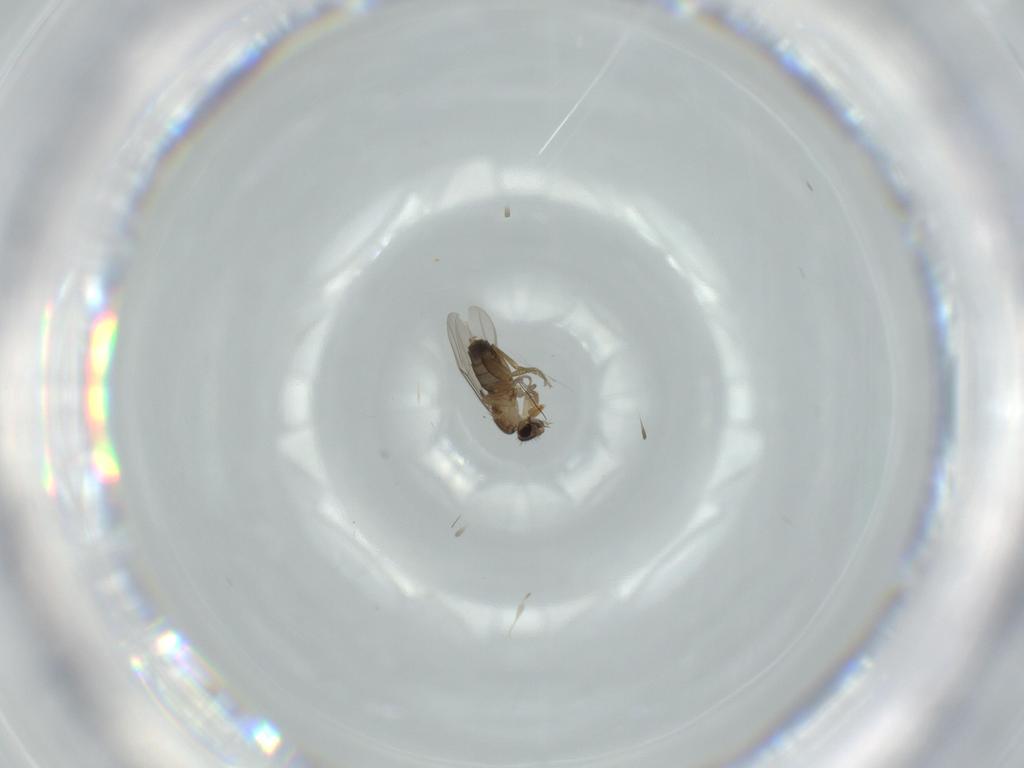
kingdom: Animalia
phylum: Arthropoda
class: Insecta
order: Diptera
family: Phoridae
